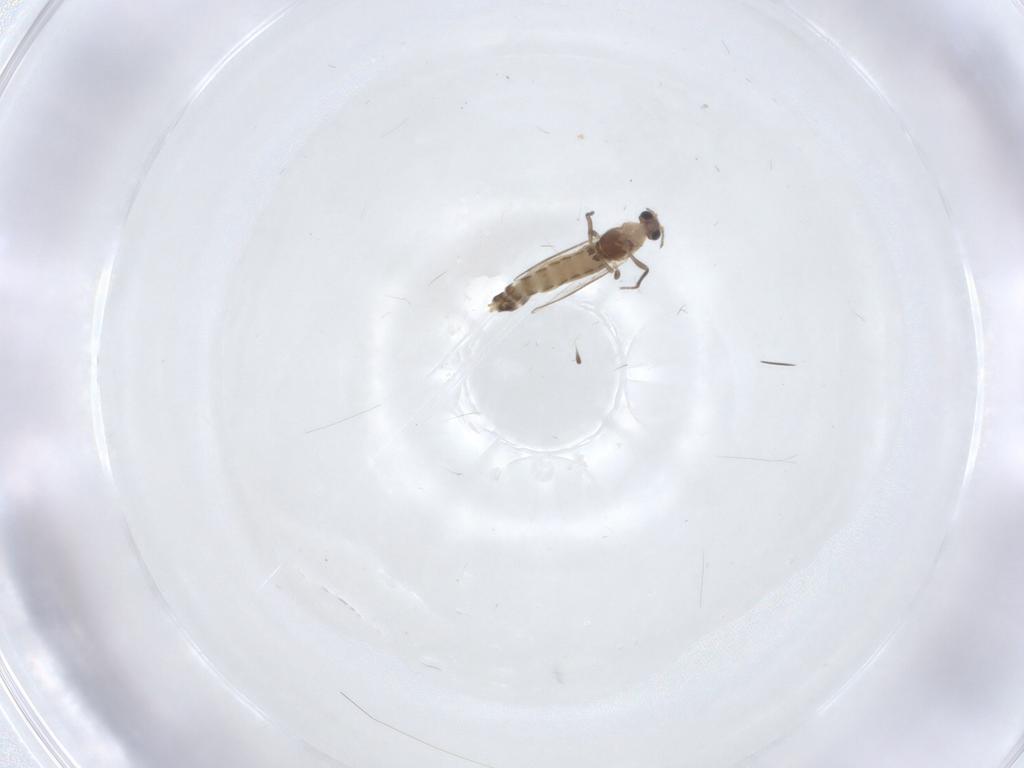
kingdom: Animalia
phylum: Arthropoda
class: Insecta
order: Diptera
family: Chironomidae
